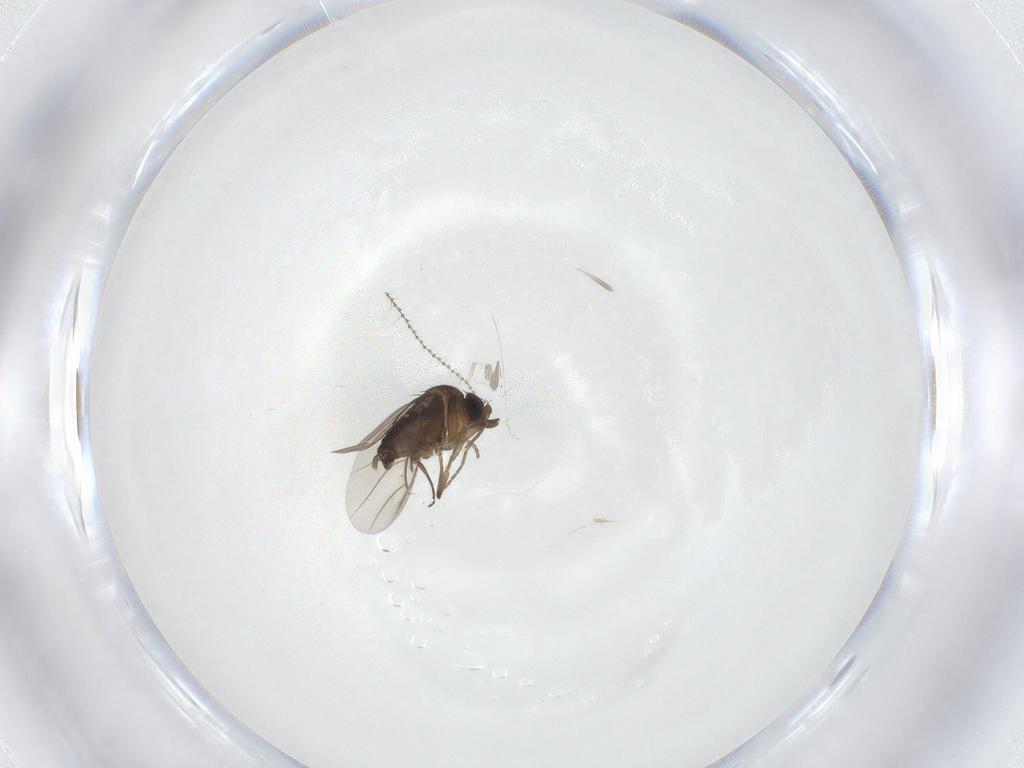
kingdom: Animalia
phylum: Arthropoda
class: Insecta
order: Diptera
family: Phoridae
